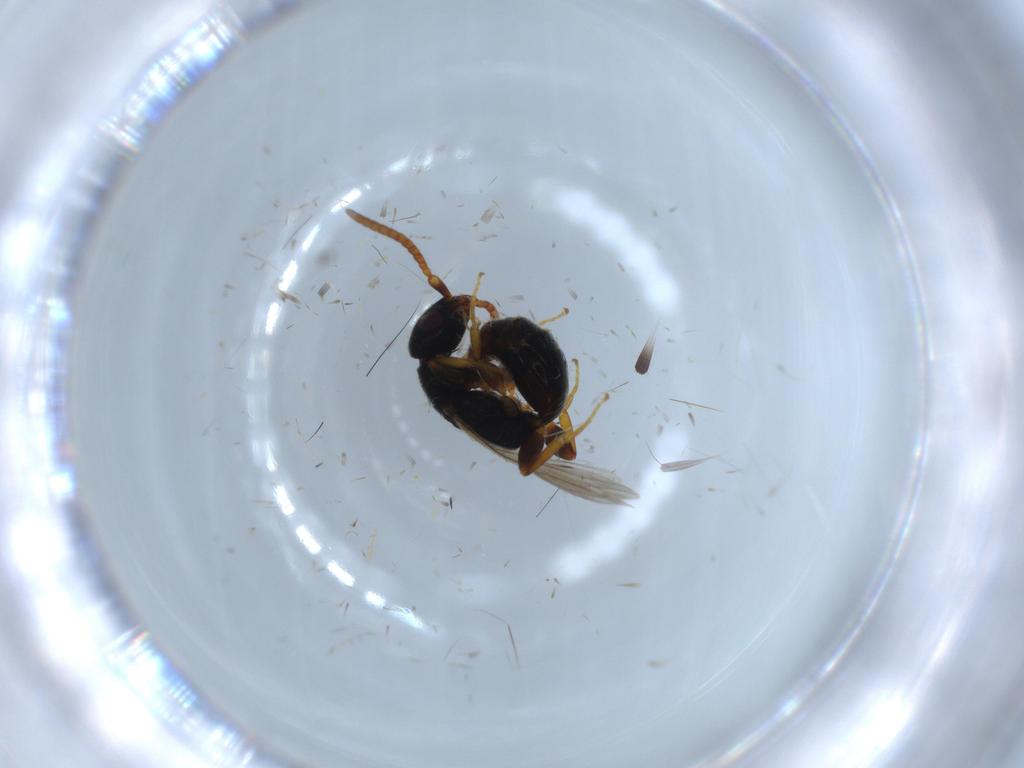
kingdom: Animalia
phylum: Arthropoda
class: Insecta
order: Hymenoptera
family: Bethylidae
